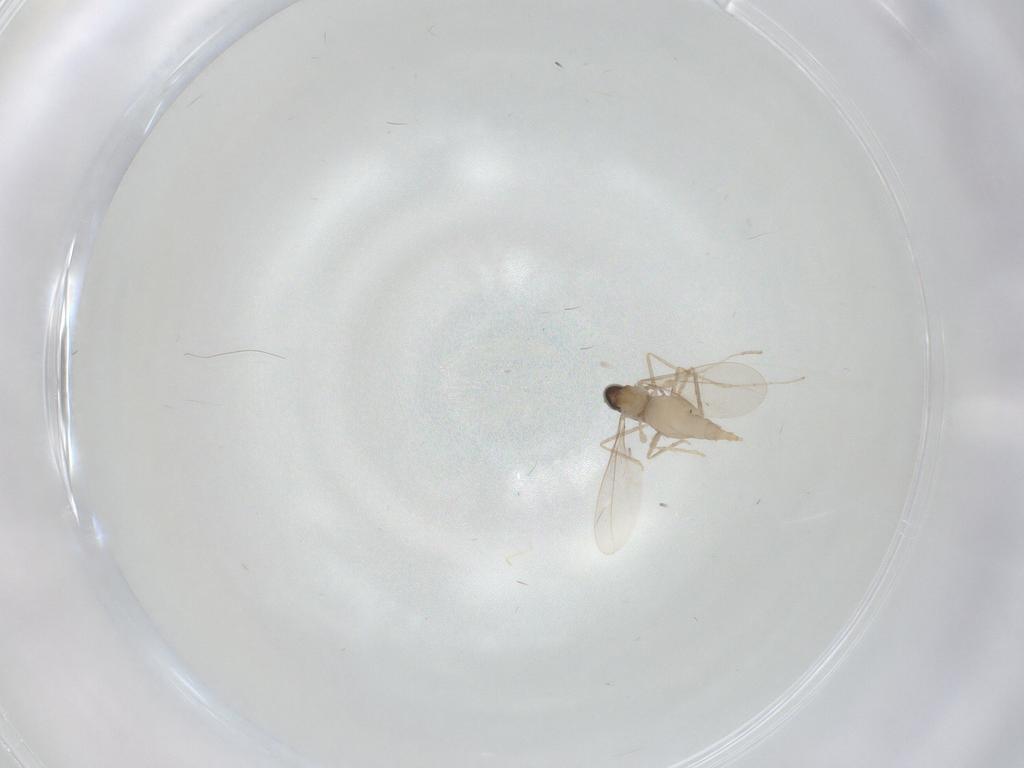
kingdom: Animalia
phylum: Arthropoda
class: Insecta
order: Diptera
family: Cecidomyiidae
